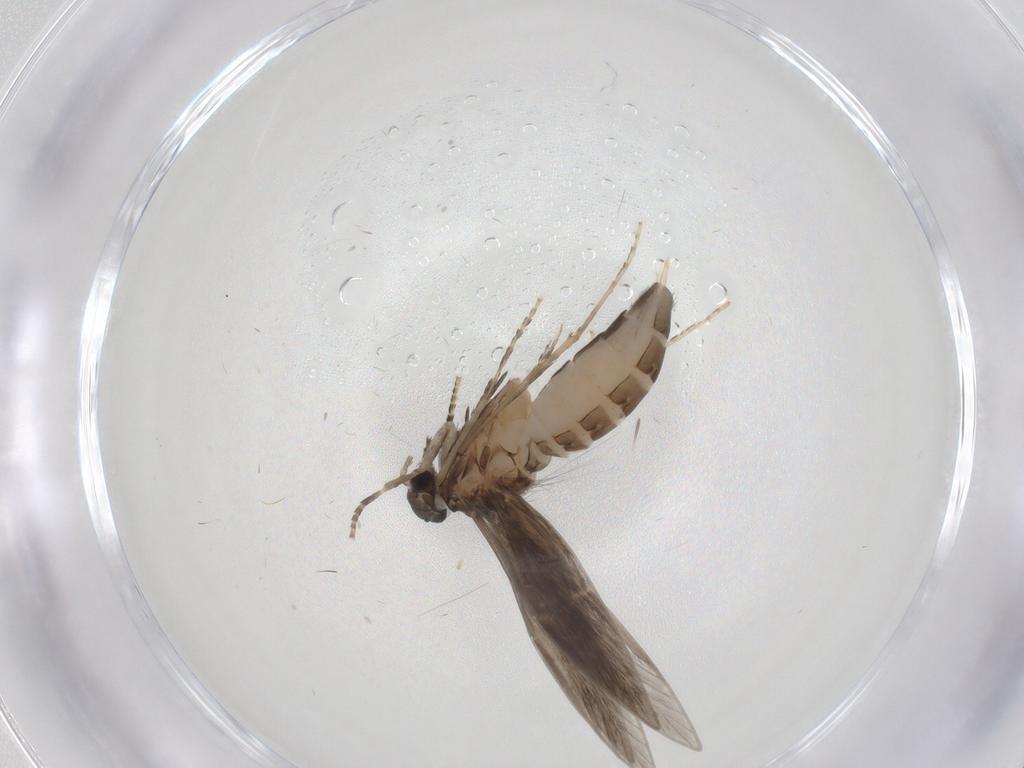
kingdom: Animalia
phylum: Arthropoda
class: Insecta
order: Trichoptera
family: Hydroptilidae
